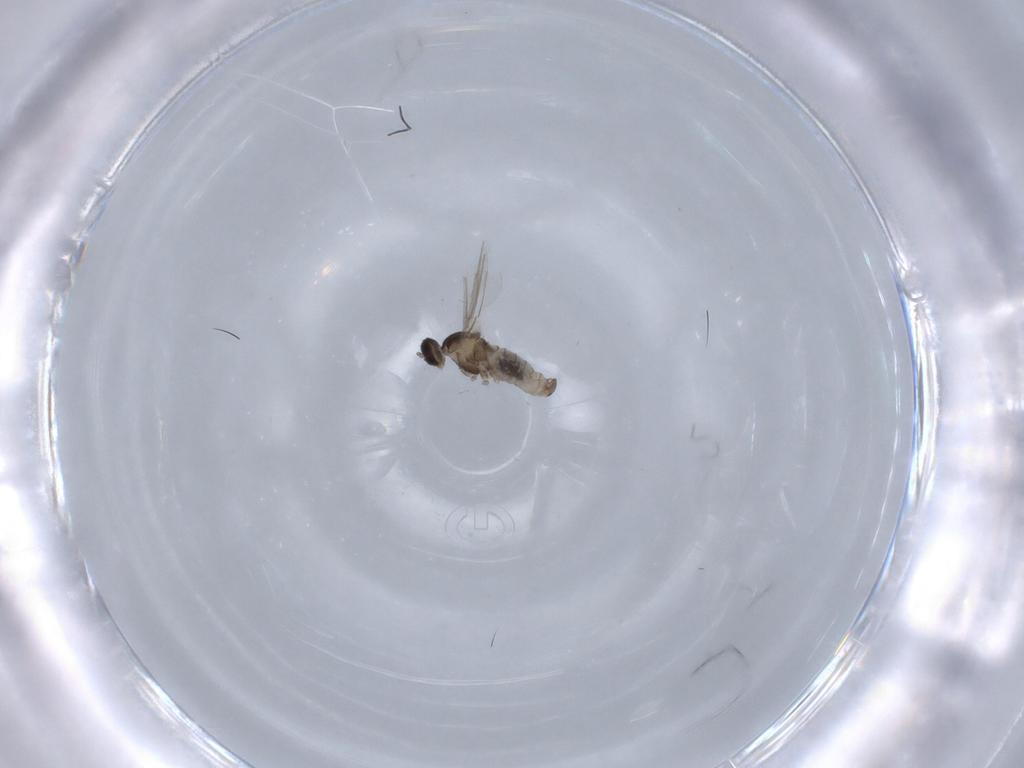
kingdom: Animalia
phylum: Arthropoda
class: Insecta
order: Diptera
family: Cecidomyiidae
